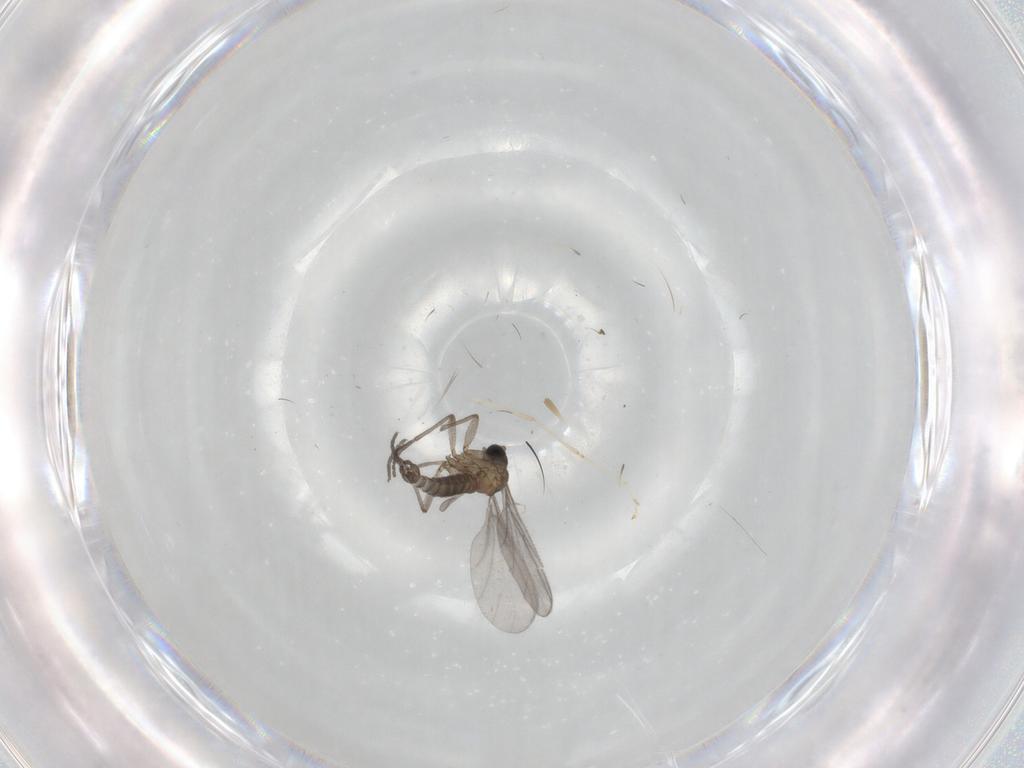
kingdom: Animalia
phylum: Arthropoda
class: Insecta
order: Diptera
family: Sciaridae
